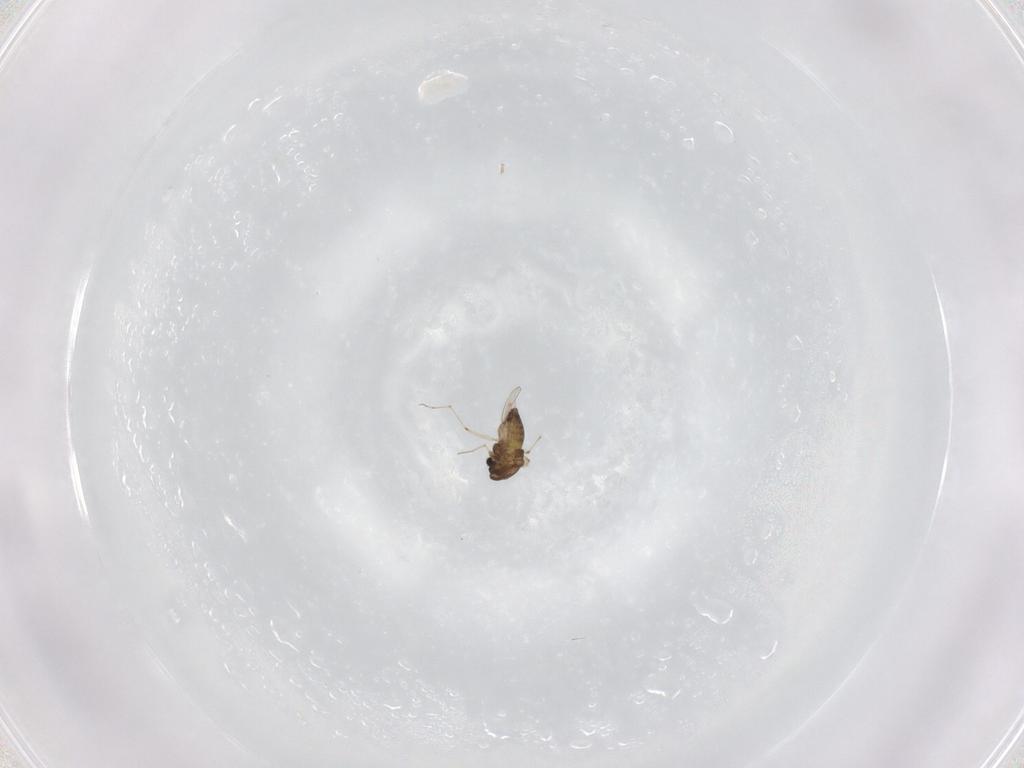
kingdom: Animalia
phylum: Arthropoda
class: Insecta
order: Diptera
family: Chironomidae
